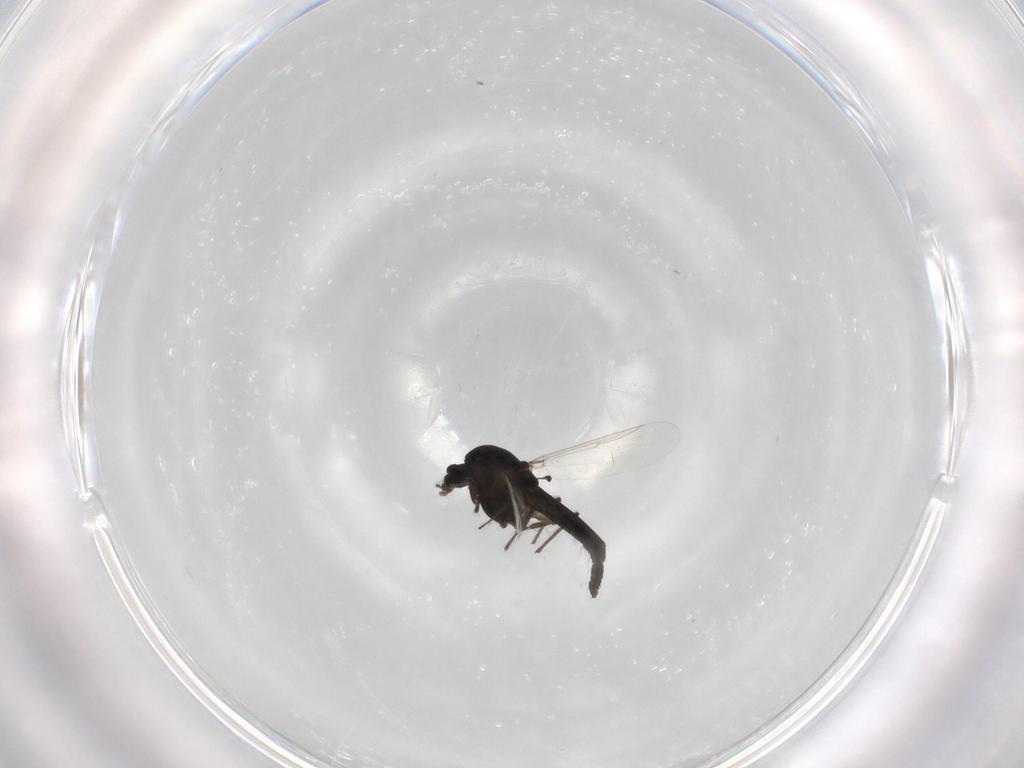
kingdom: Animalia
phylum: Arthropoda
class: Insecta
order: Diptera
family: Chironomidae
